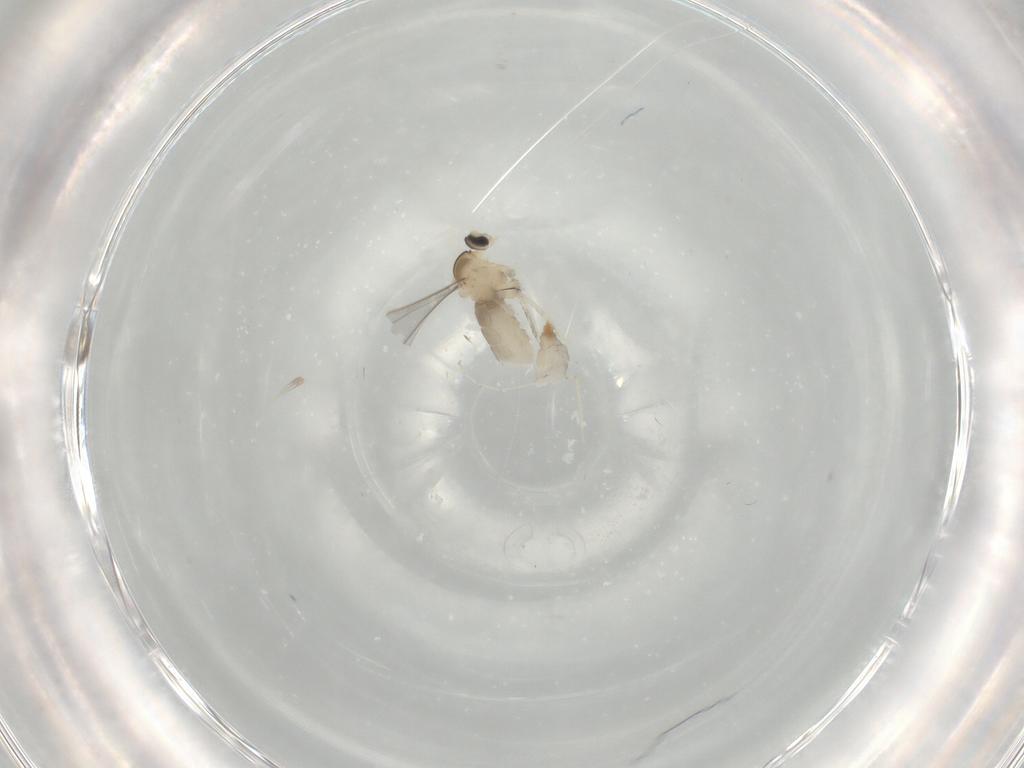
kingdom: Animalia
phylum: Arthropoda
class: Insecta
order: Diptera
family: Cecidomyiidae
